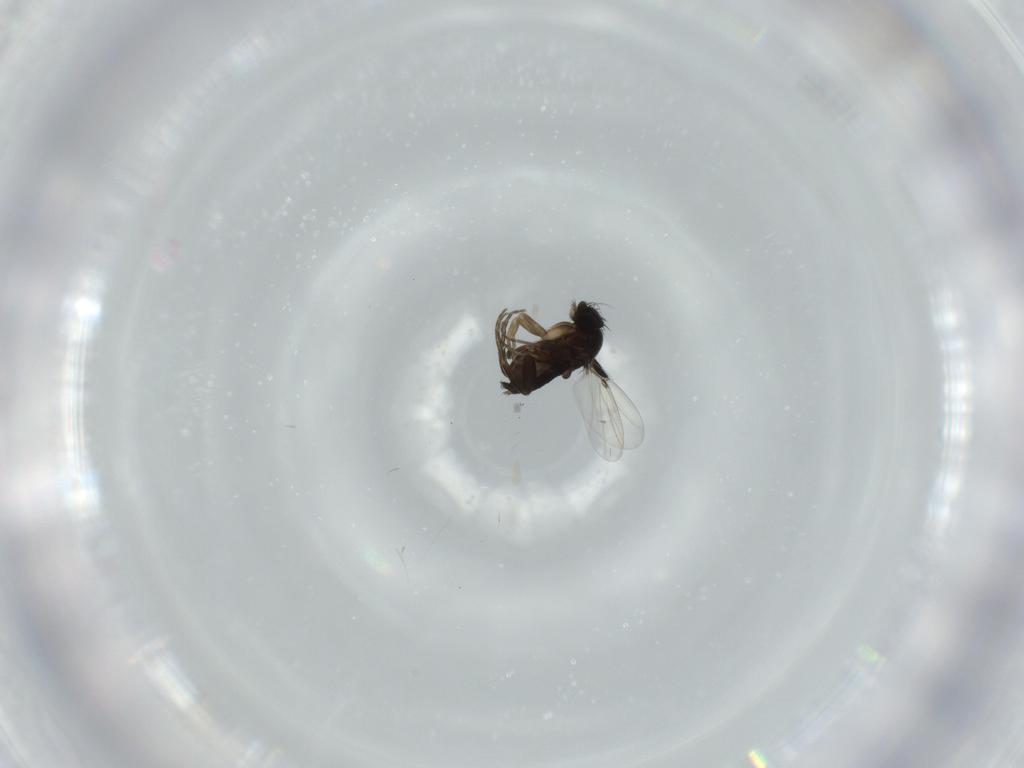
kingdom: Animalia
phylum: Arthropoda
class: Insecta
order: Diptera
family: Phoridae
